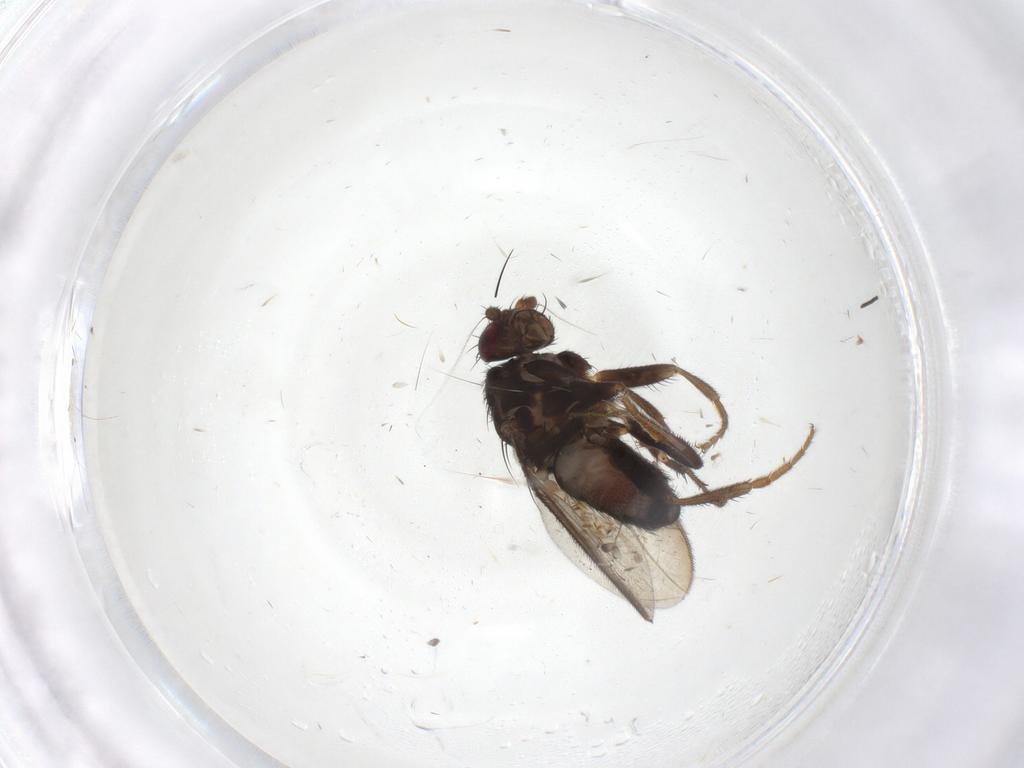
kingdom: Animalia
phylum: Arthropoda
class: Insecta
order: Diptera
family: Sphaeroceridae
